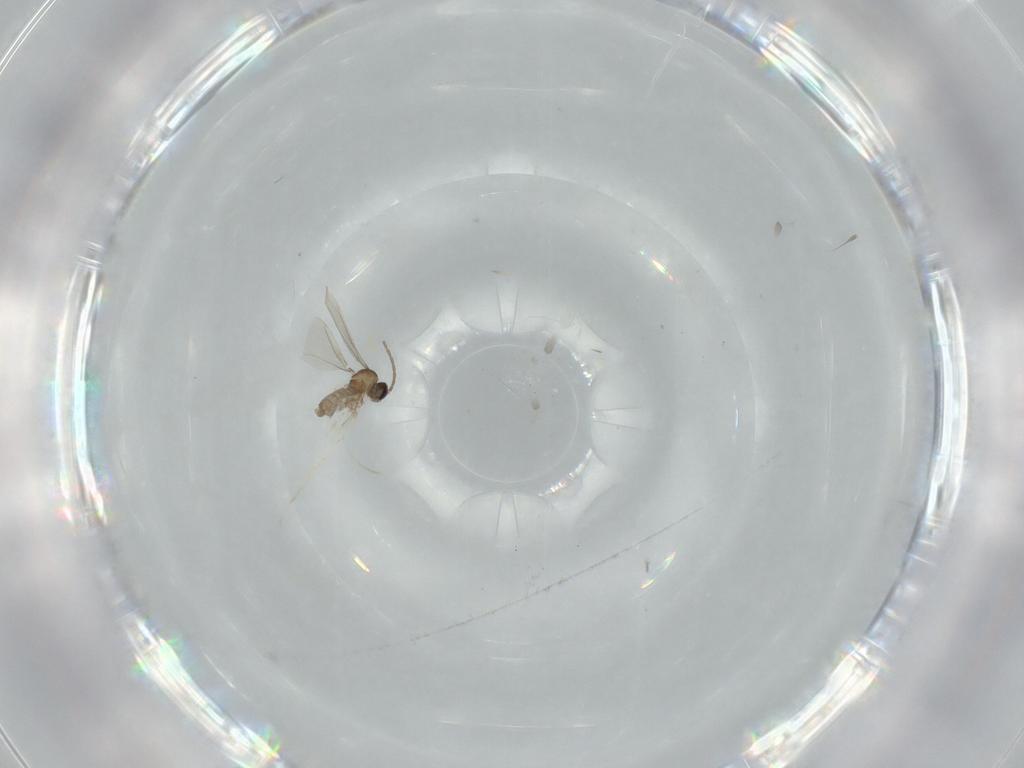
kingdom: Animalia
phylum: Arthropoda
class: Insecta
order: Diptera
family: Cecidomyiidae
